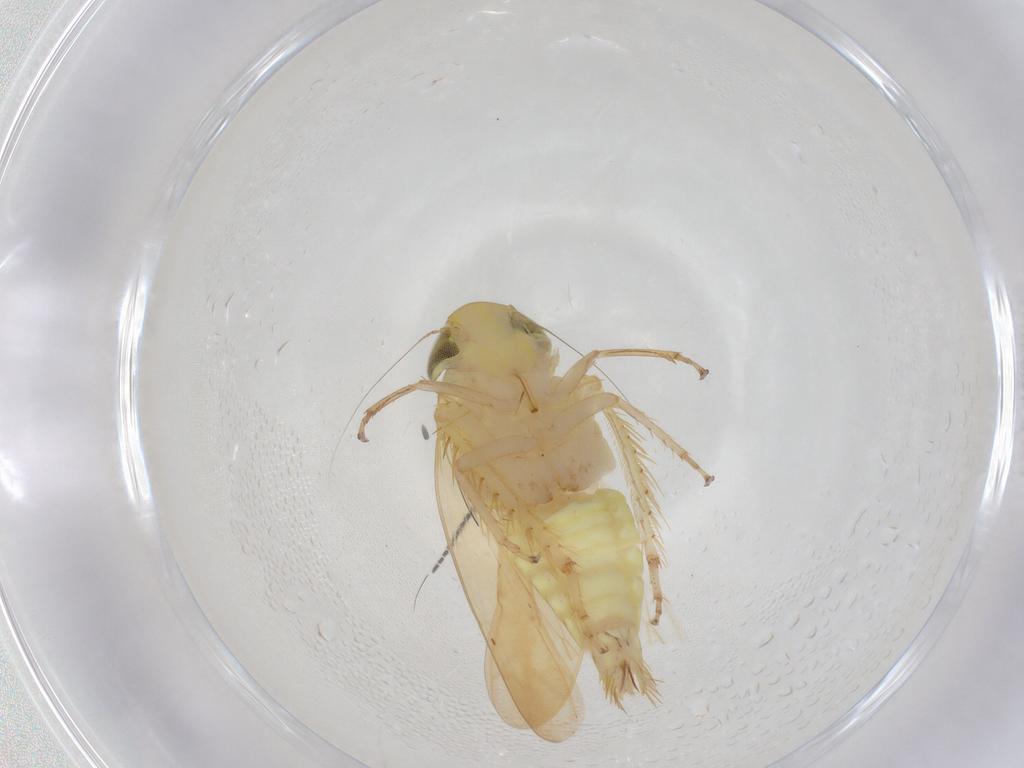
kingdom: Animalia
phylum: Arthropoda
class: Insecta
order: Hemiptera
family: Cicadellidae
